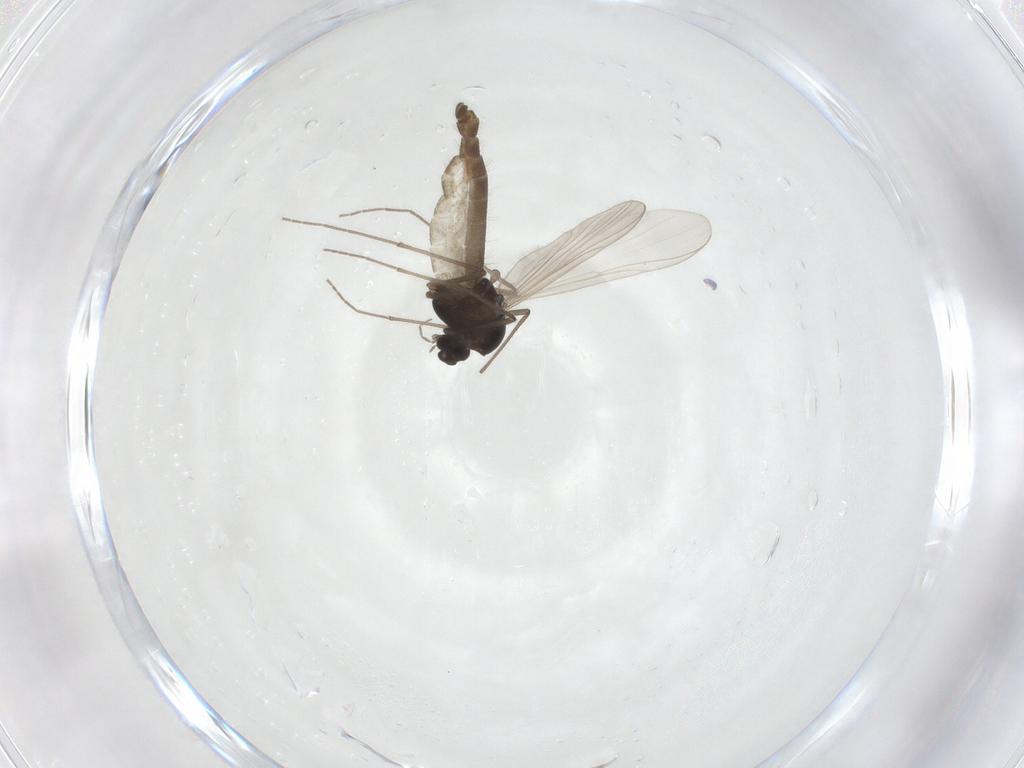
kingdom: Animalia
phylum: Arthropoda
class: Insecta
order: Diptera
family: Chironomidae
